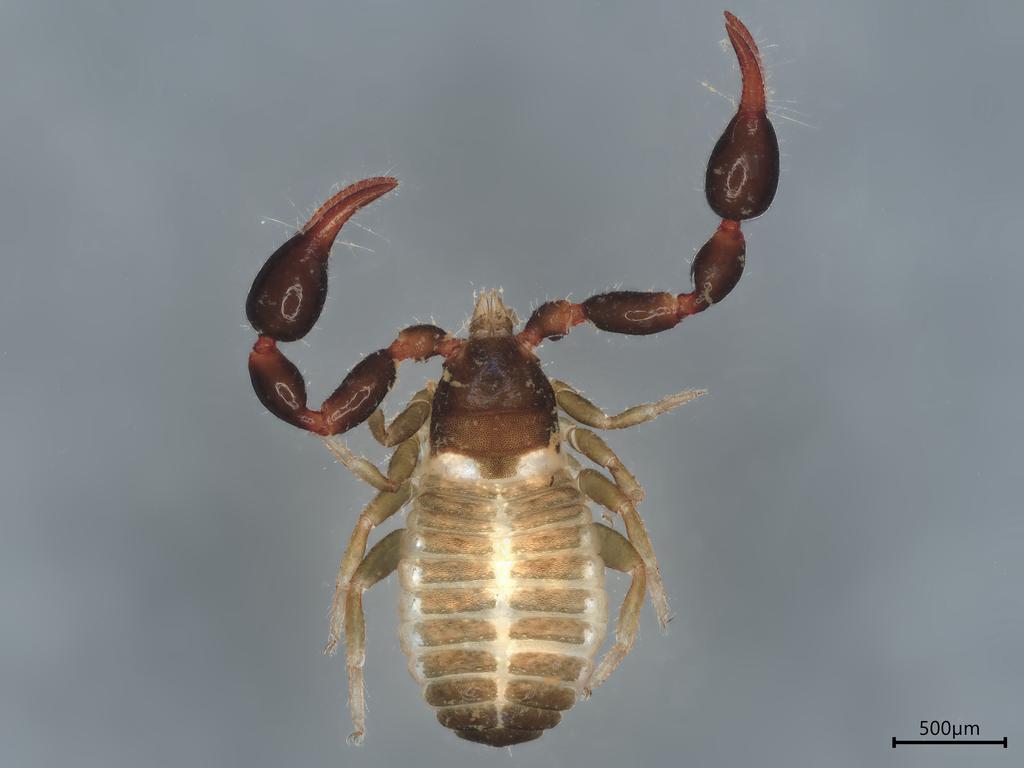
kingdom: Animalia
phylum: Arthropoda
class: Arachnida
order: Pseudoscorpiones
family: Chernetidae
